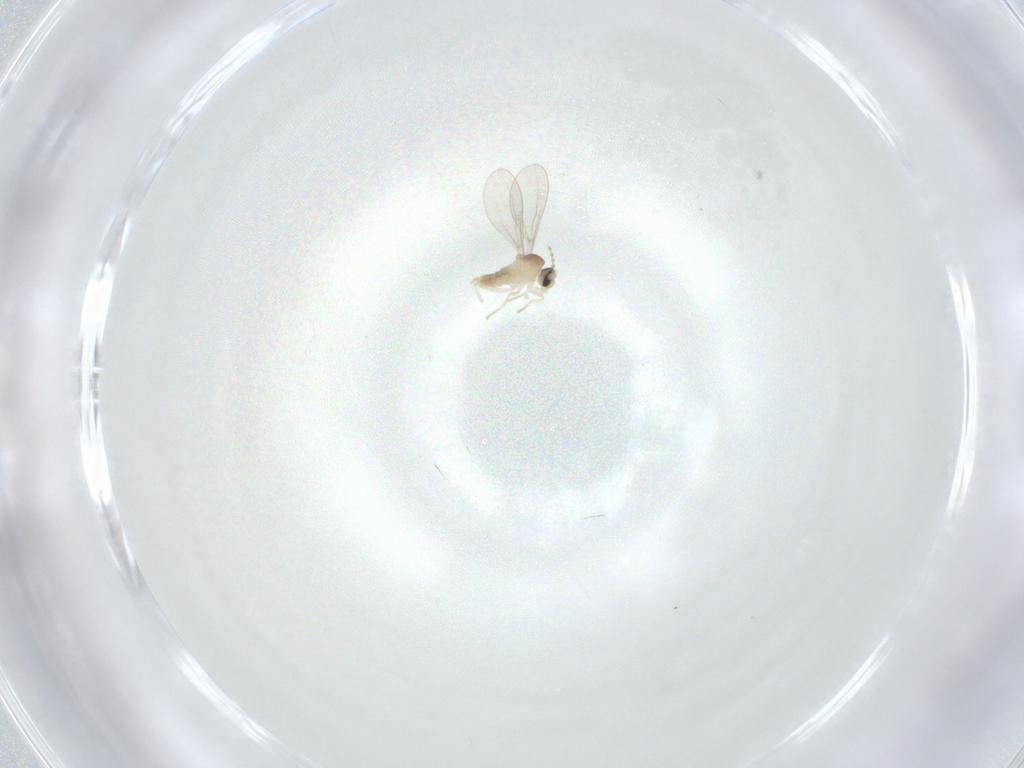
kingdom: Animalia
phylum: Arthropoda
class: Insecta
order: Diptera
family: Cecidomyiidae
